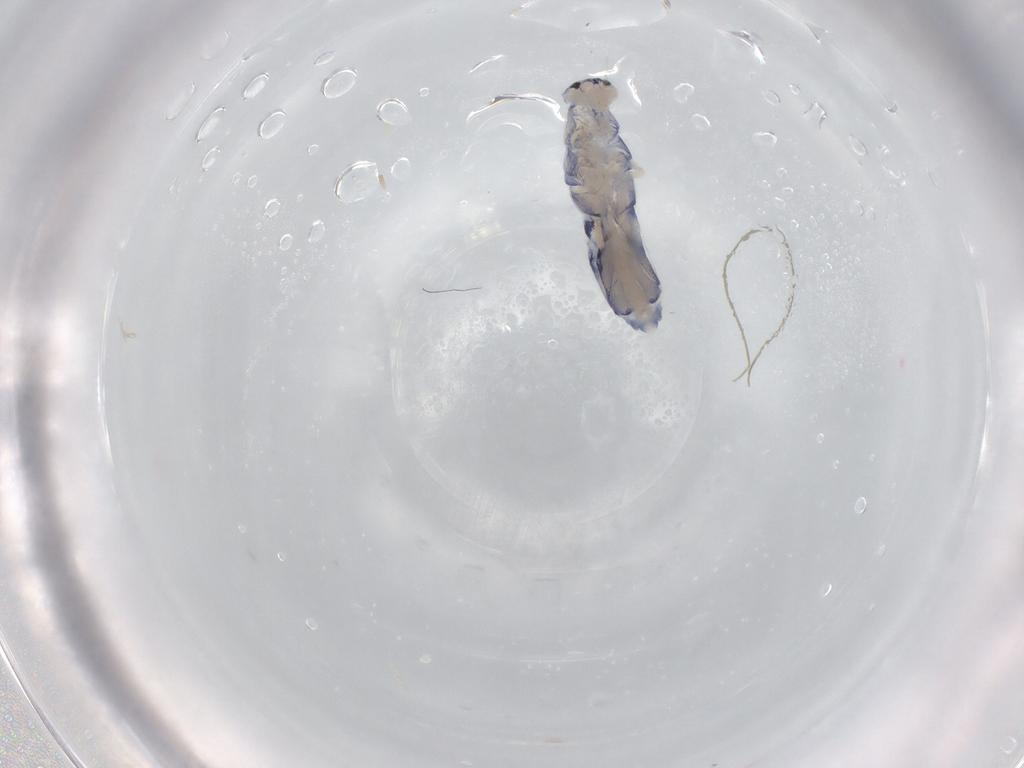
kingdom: Animalia
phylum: Arthropoda
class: Collembola
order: Entomobryomorpha
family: Entomobryidae
